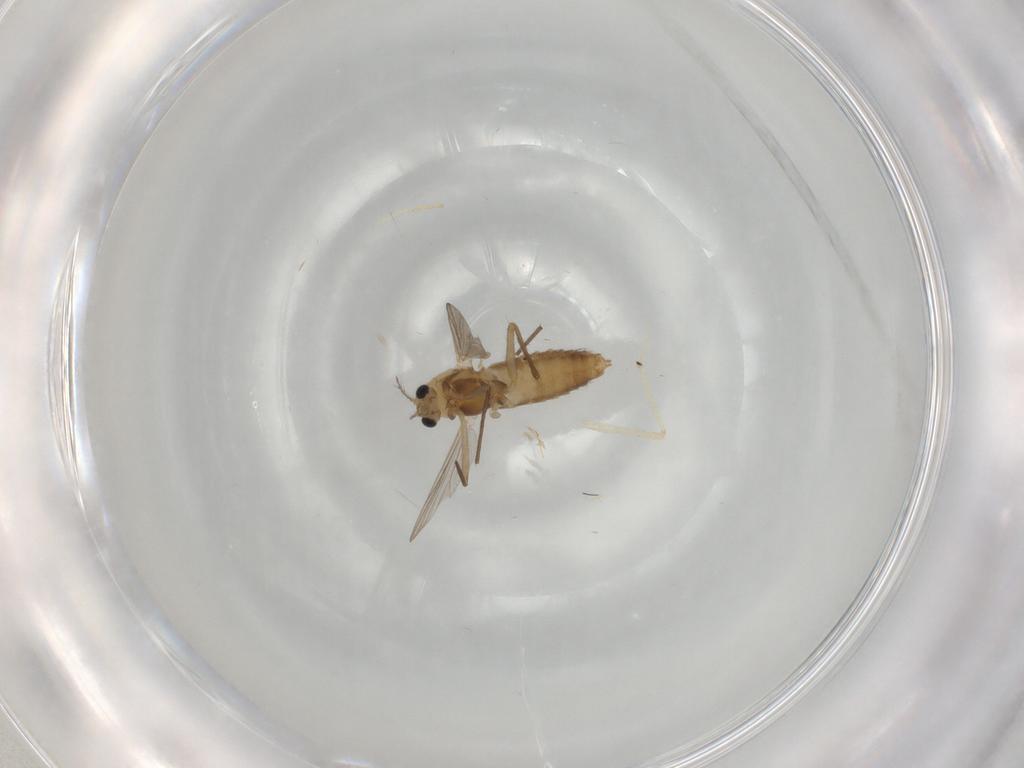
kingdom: Animalia
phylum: Arthropoda
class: Insecta
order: Diptera
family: Chironomidae
